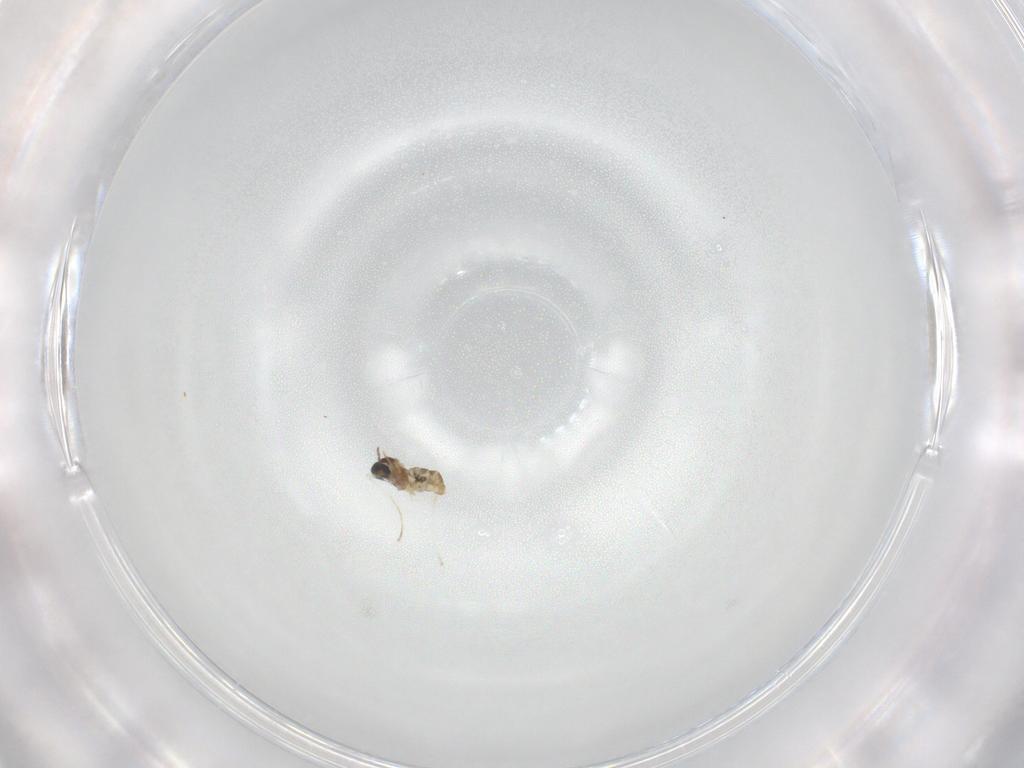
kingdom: Animalia
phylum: Arthropoda
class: Insecta
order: Diptera
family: Cecidomyiidae
